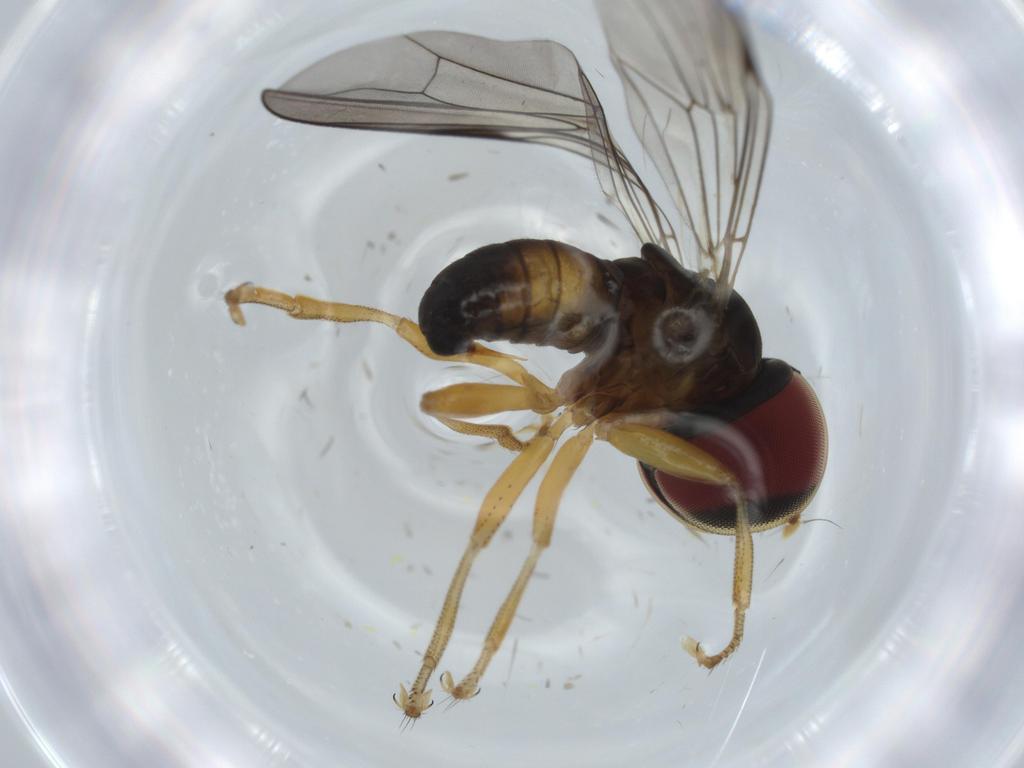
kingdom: Animalia
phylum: Arthropoda
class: Insecta
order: Diptera
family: Pipunculidae
